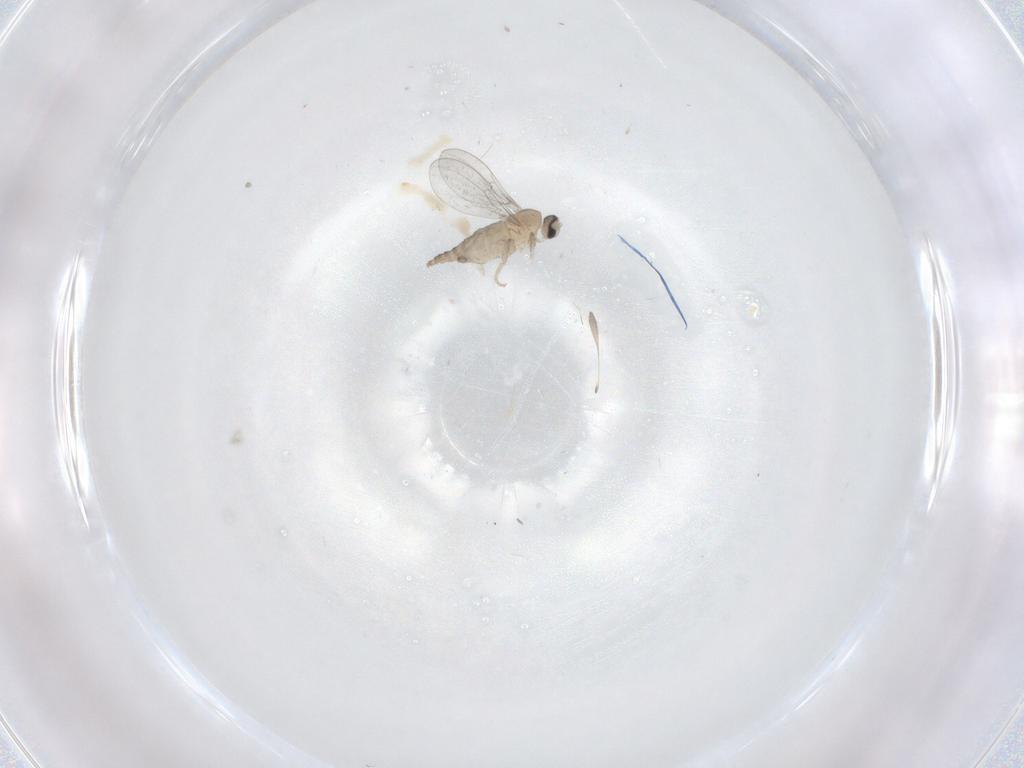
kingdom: Animalia
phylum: Arthropoda
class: Insecta
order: Diptera
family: Cecidomyiidae
